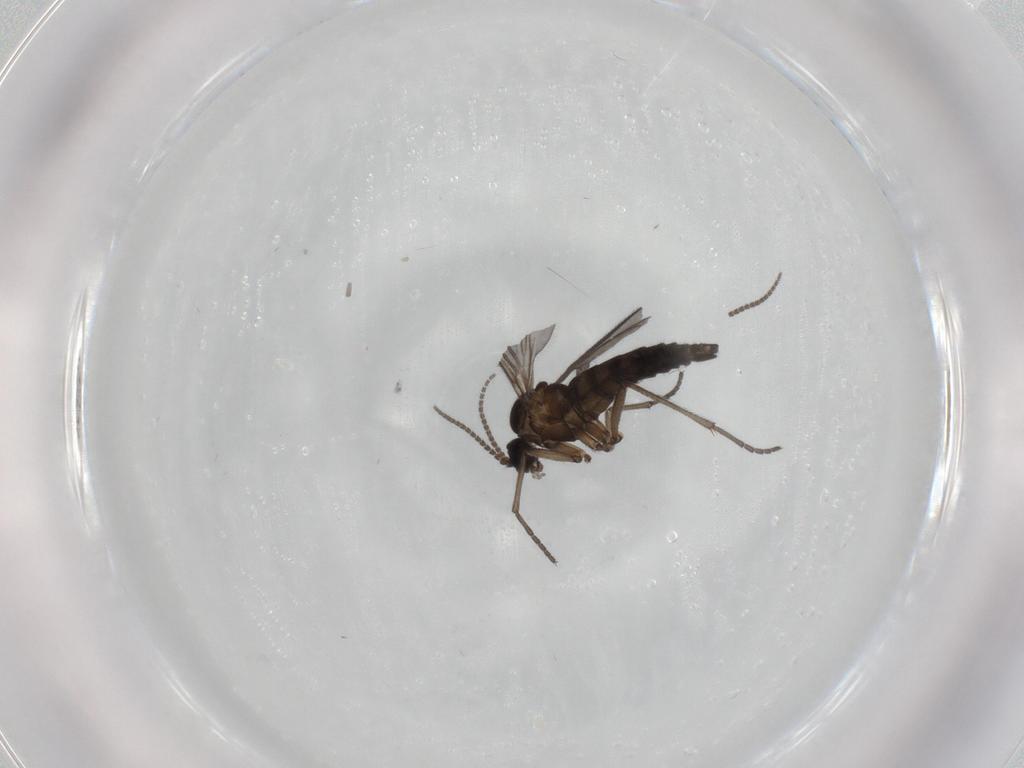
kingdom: Animalia
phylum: Arthropoda
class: Insecta
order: Diptera
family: Sciaridae
